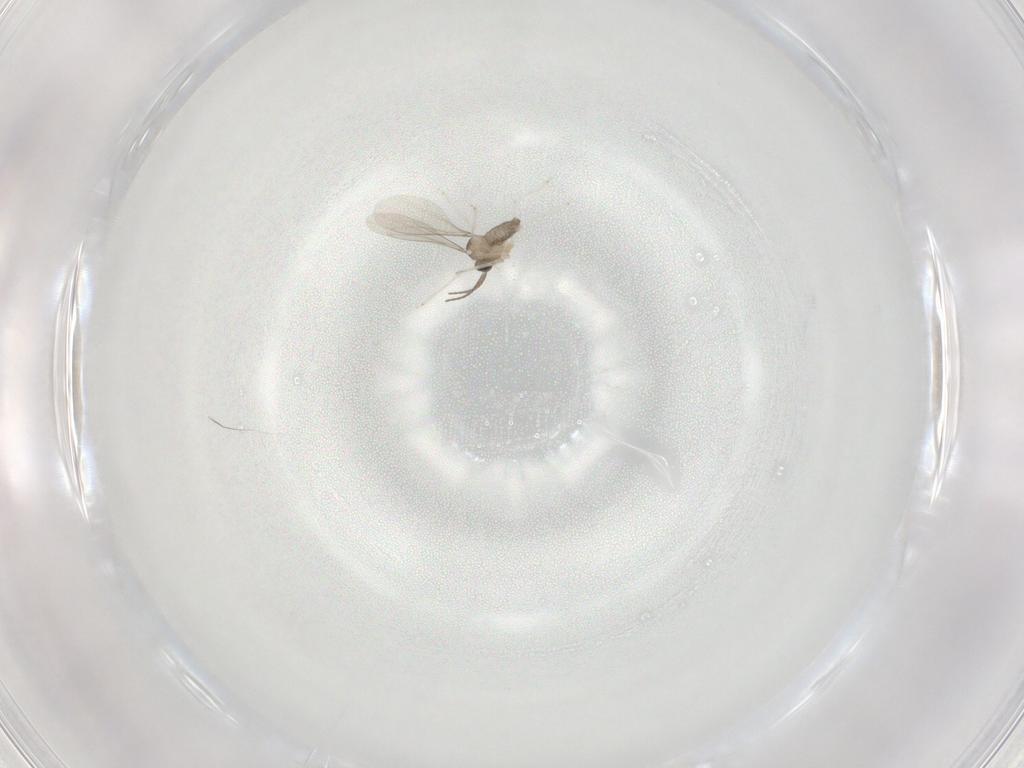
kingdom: Animalia
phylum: Arthropoda
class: Insecta
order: Diptera
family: Cecidomyiidae
